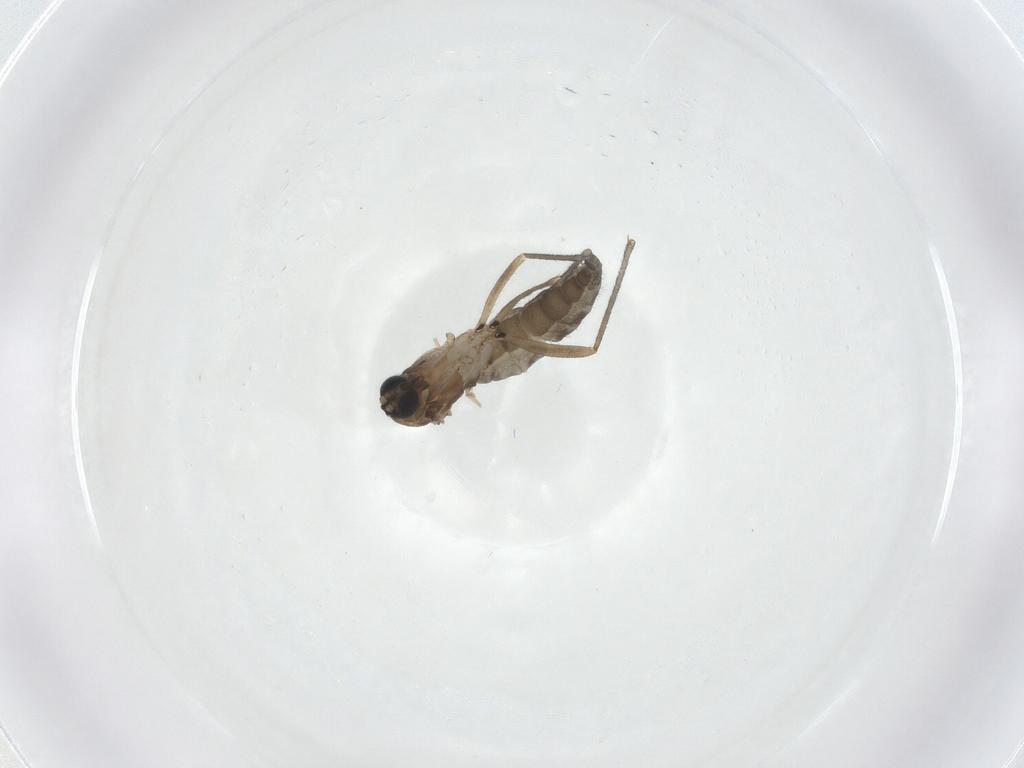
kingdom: Animalia
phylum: Arthropoda
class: Insecta
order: Diptera
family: Sciaridae
